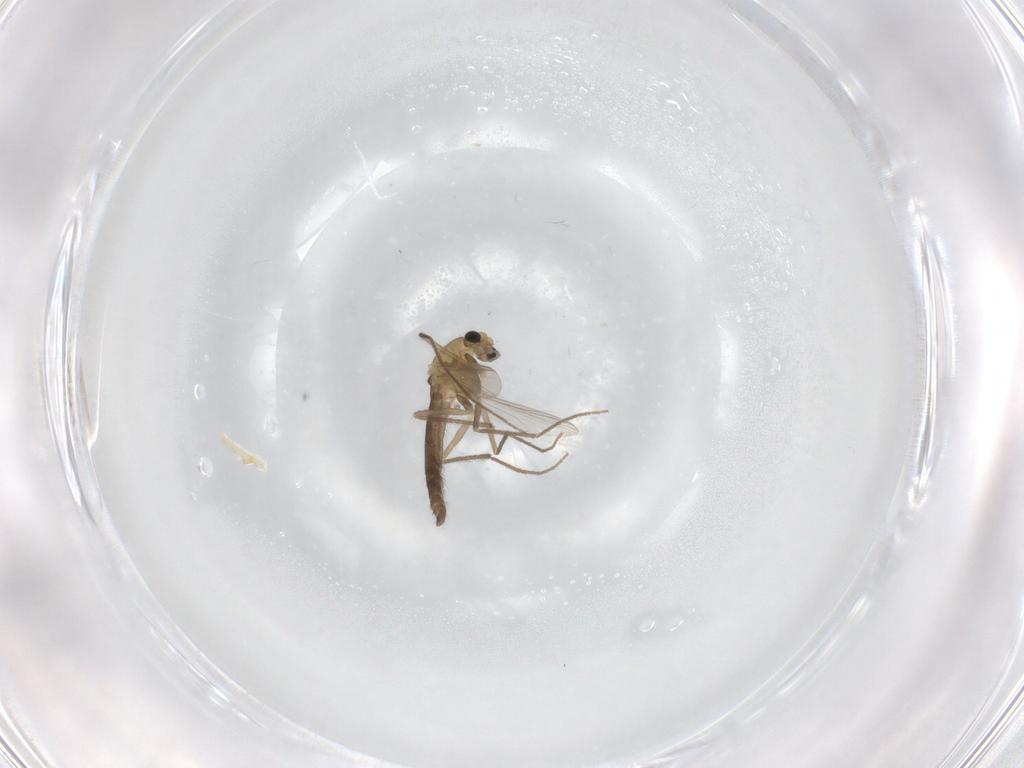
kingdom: Animalia
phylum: Arthropoda
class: Insecta
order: Diptera
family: Chironomidae
